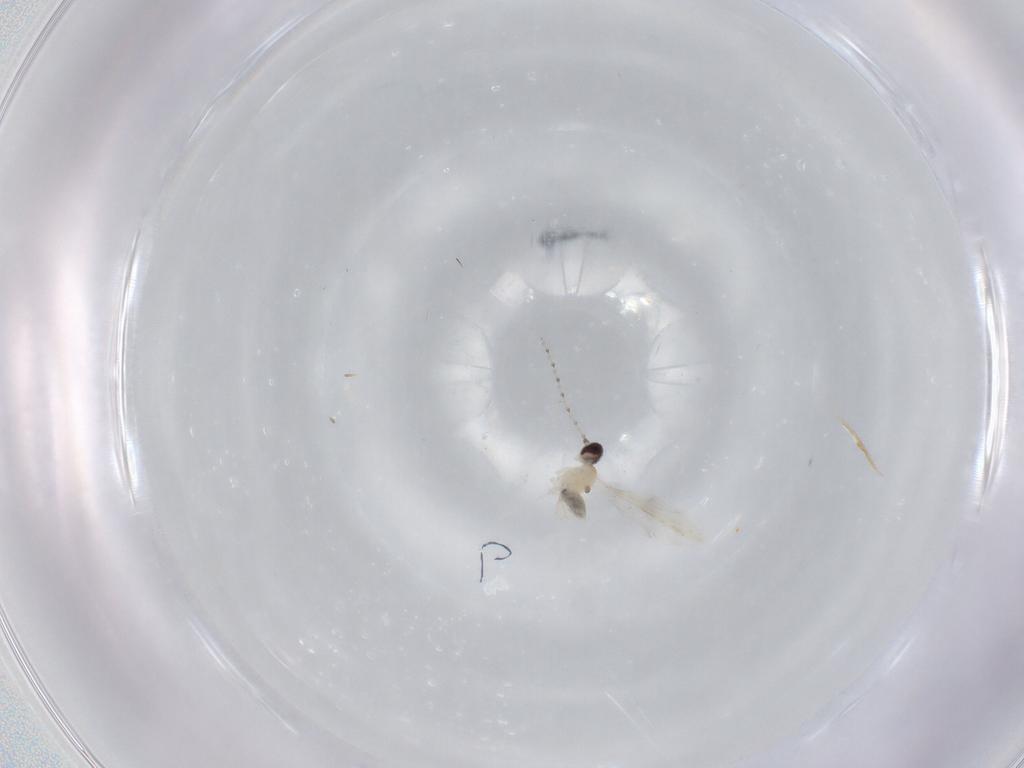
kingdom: Animalia
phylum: Arthropoda
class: Insecta
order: Diptera
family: Cecidomyiidae
